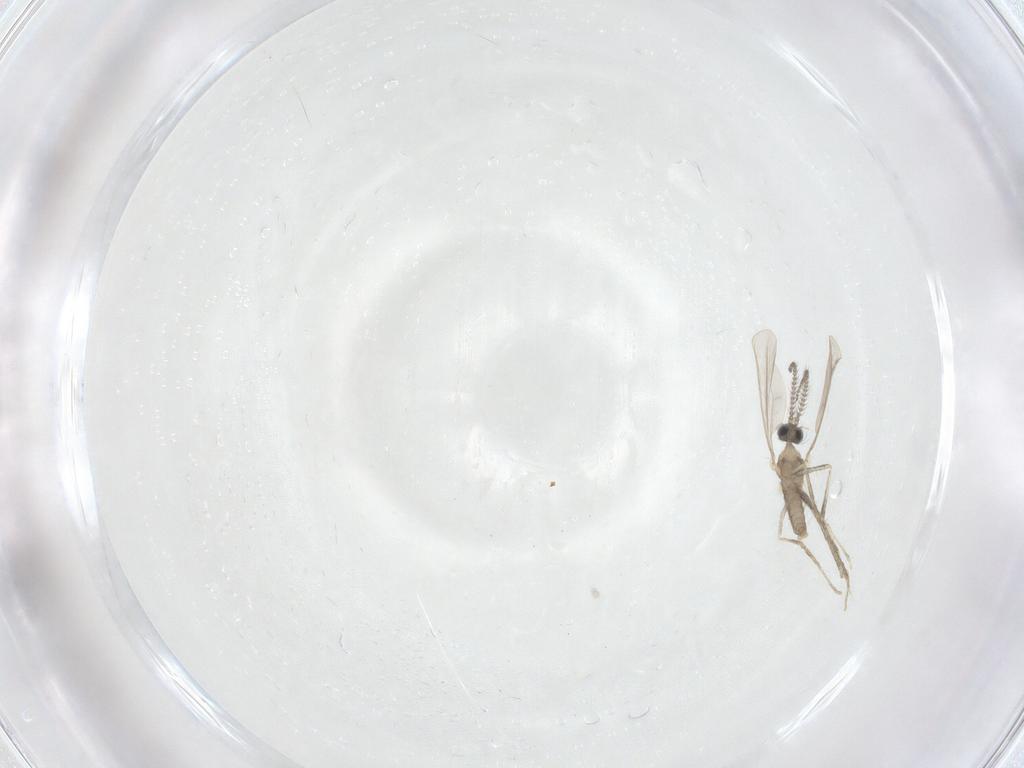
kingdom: Animalia
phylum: Arthropoda
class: Insecta
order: Diptera
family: Cecidomyiidae
